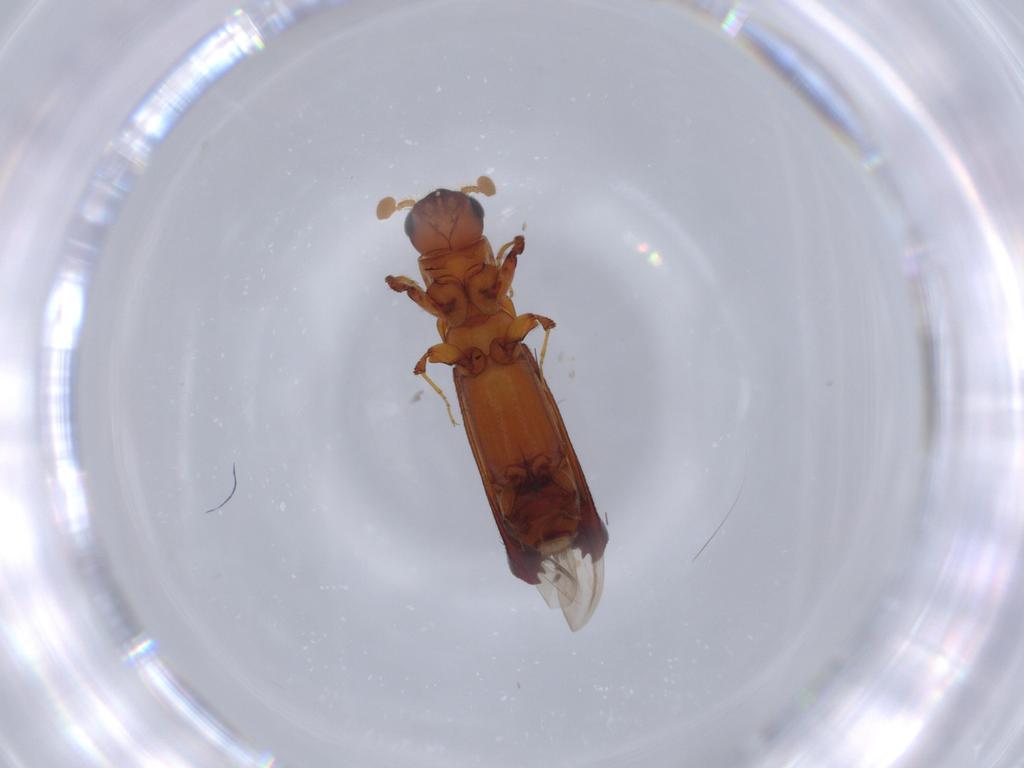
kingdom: Animalia
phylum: Arthropoda
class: Insecta
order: Coleoptera
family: Curculionidae
